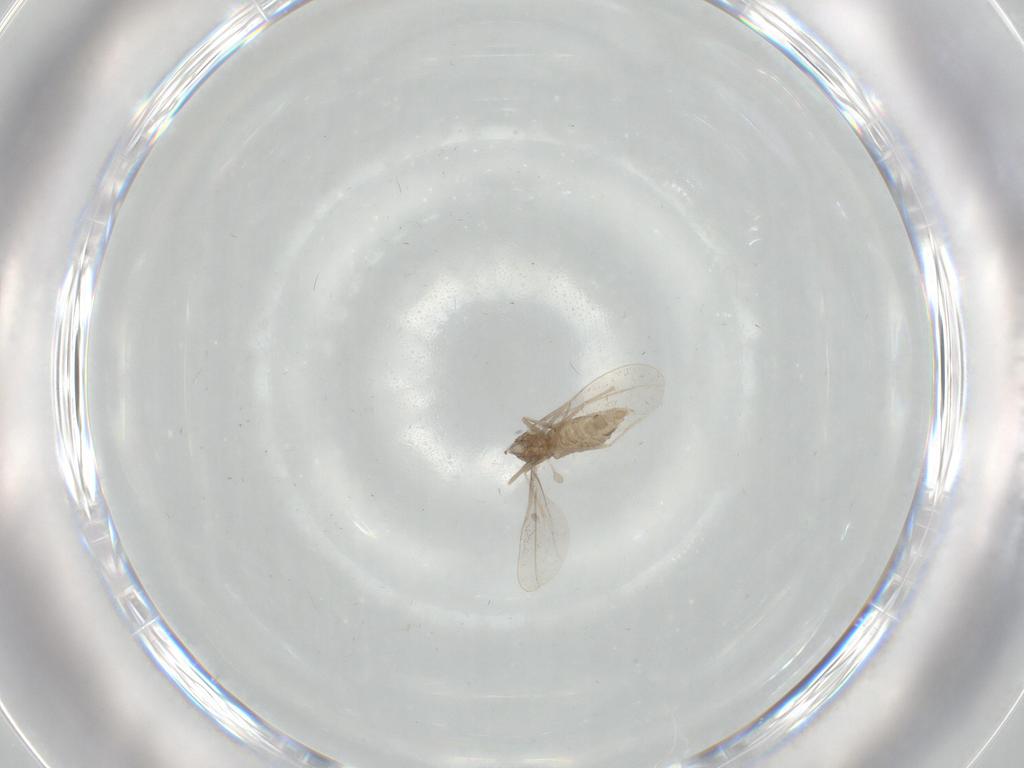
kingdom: Animalia
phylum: Arthropoda
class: Insecta
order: Diptera
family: Cecidomyiidae
